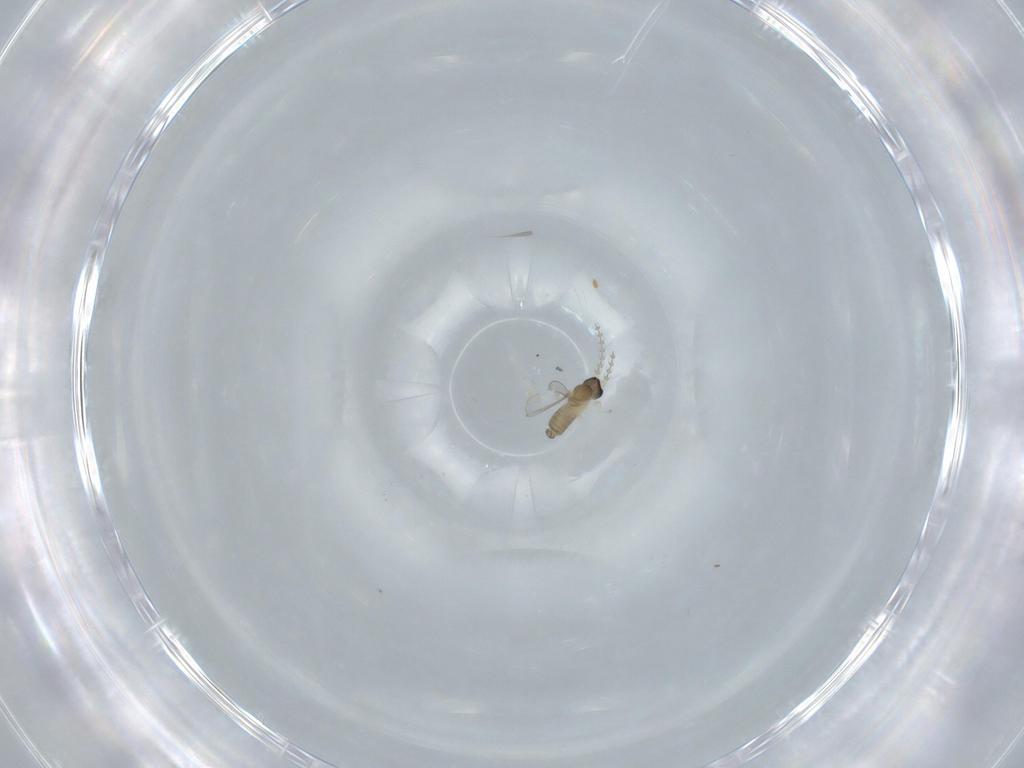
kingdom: Animalia
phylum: Arthropoda
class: Insecta
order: Diptera
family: Cecidomyiidae
